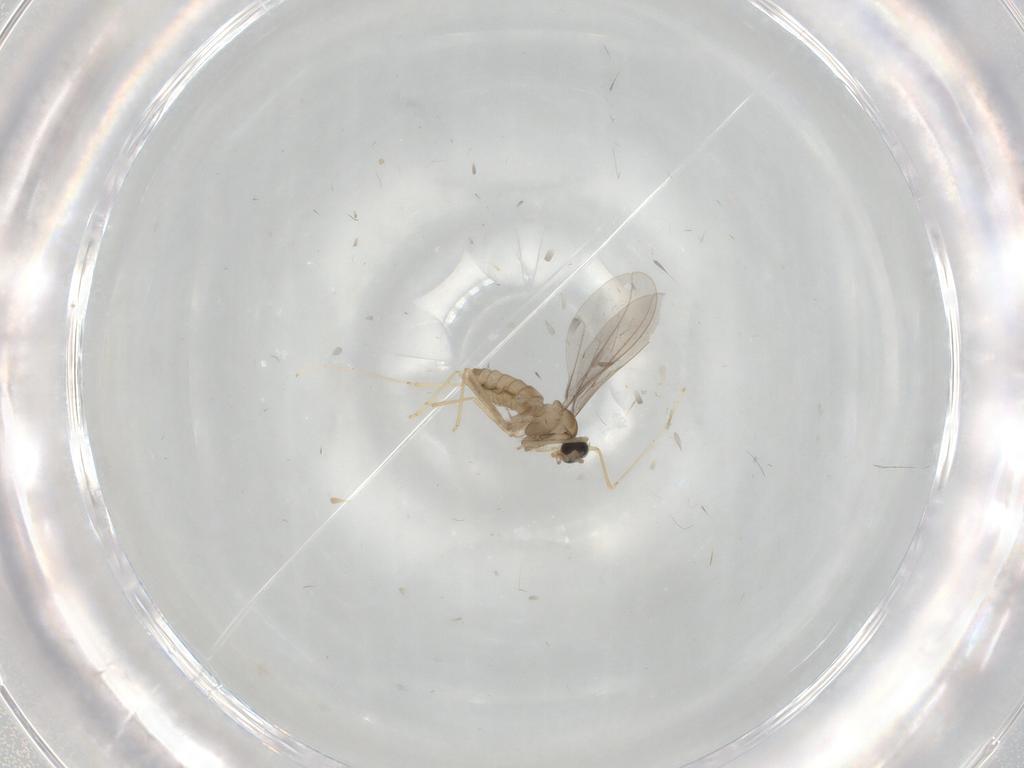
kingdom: Animalia
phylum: Arthropoda
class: Insecta
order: Diptera
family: Cecidomyiidae
